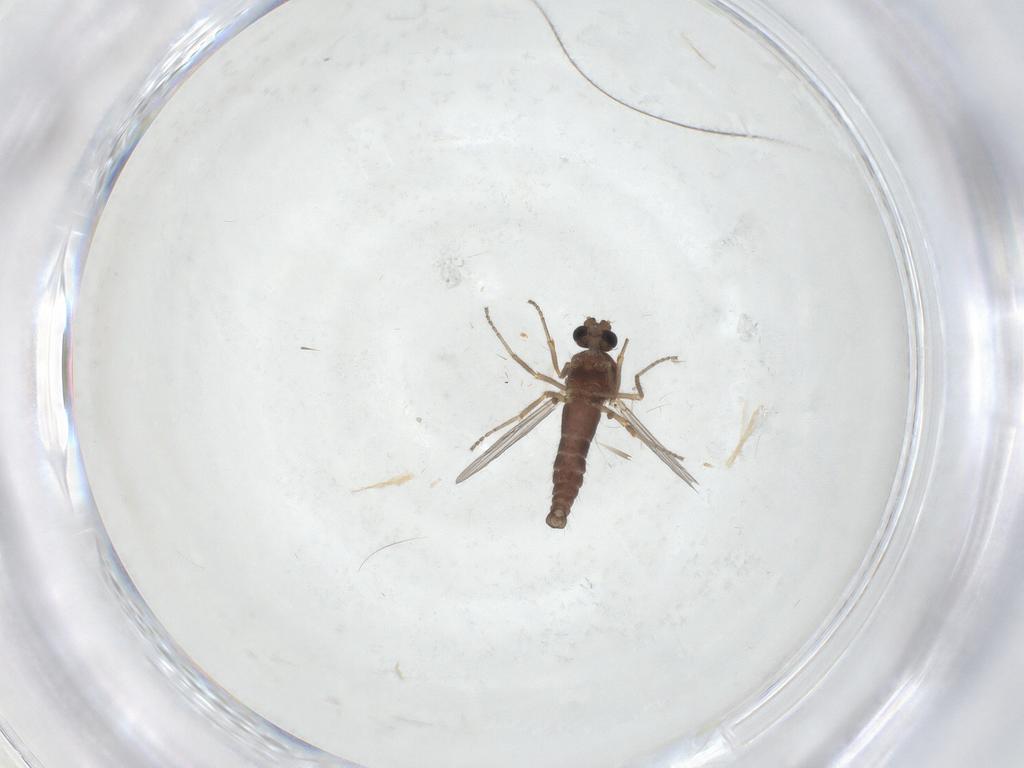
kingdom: Animalia
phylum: Arthropoda
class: Insecta
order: Diptera
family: Ceratopogonidae
